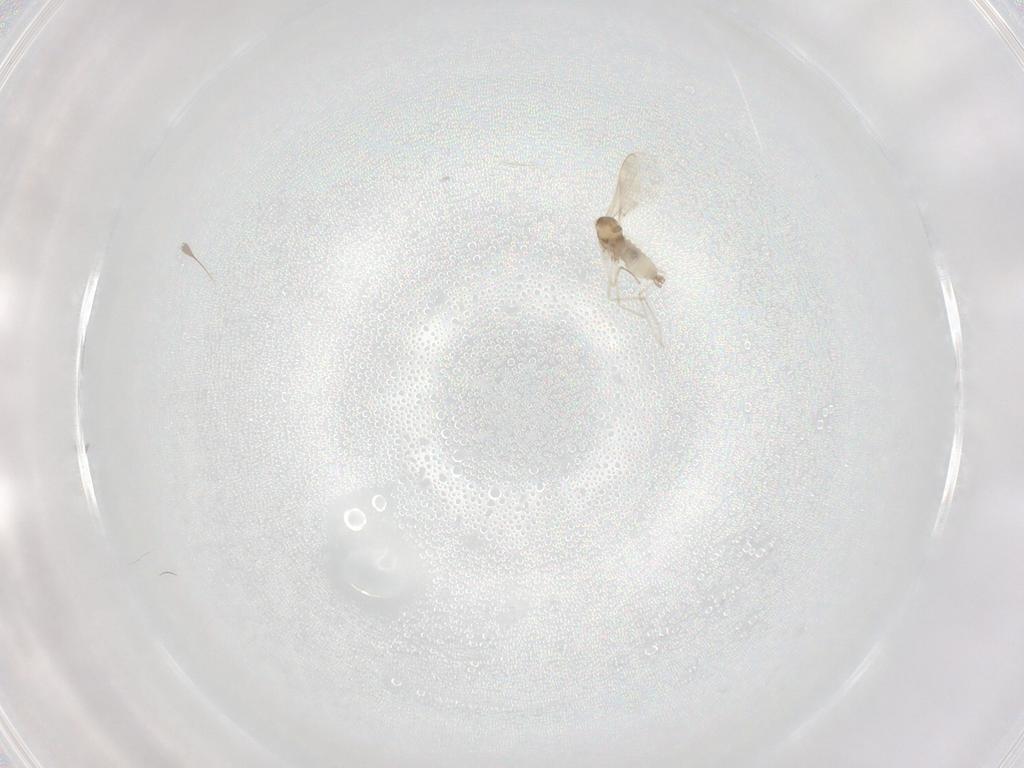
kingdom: Animalia
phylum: Arthropoda
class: Insecta
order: Diptera
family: Cecidomyiidae
